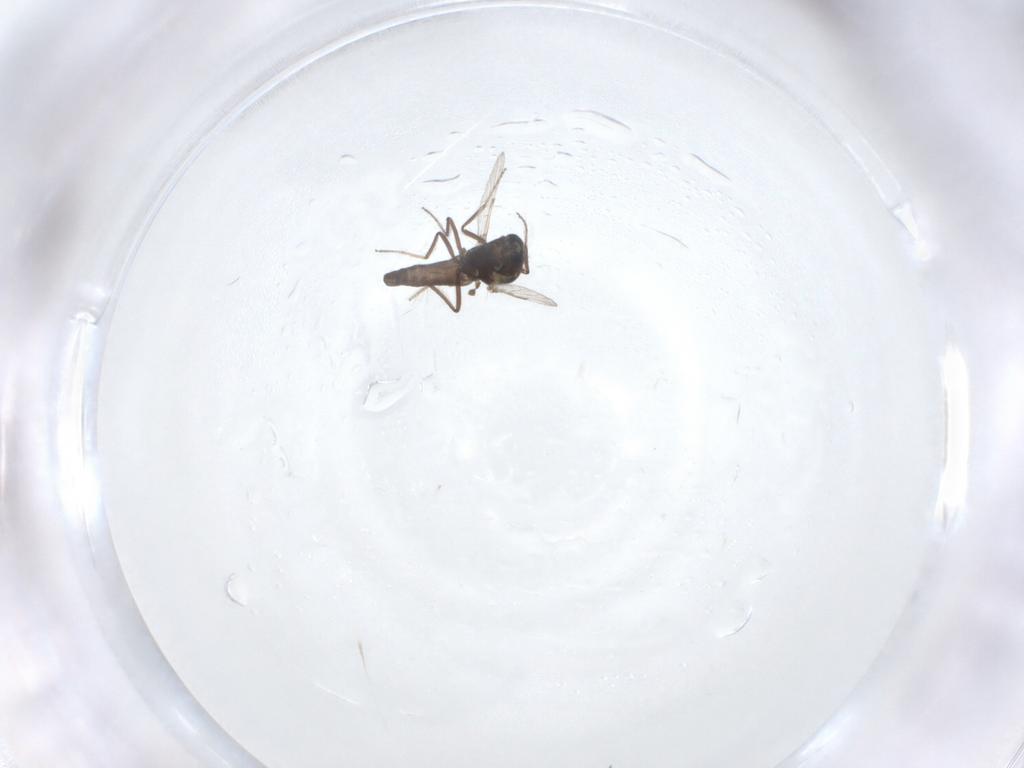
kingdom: Animalia
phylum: Arthropoda
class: Insecta
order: Diptera
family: Ceratopogonidae
